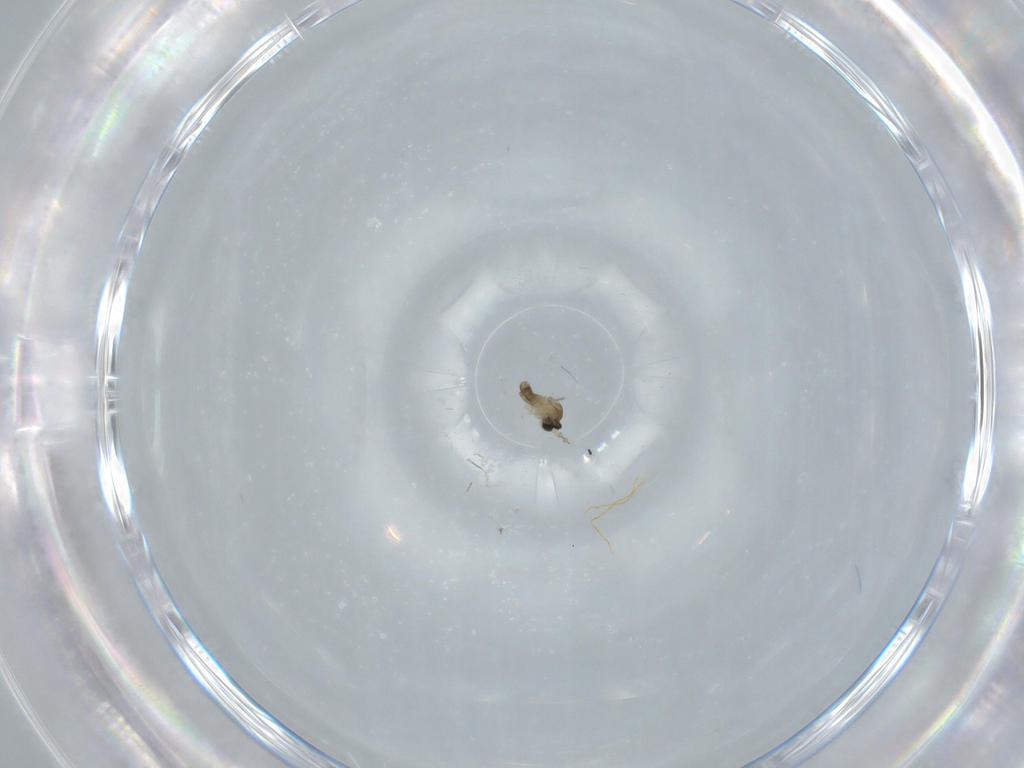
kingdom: Animalia
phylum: Arthropoda
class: Insecta
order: Diptera
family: Cecidomyiidae
